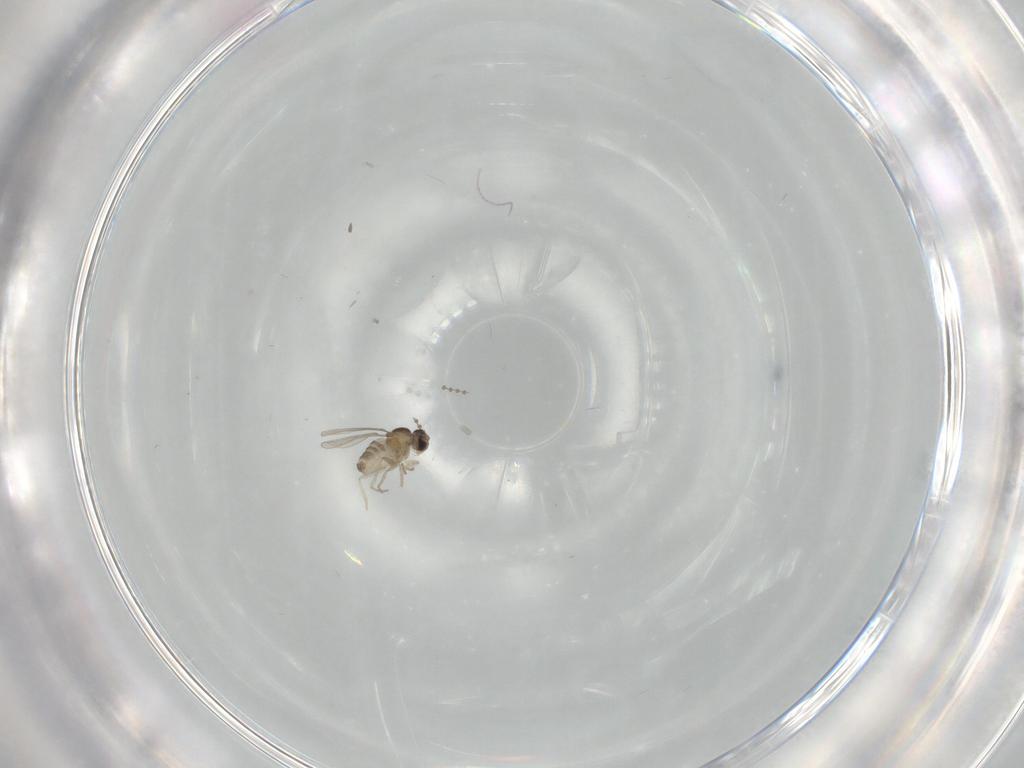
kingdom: Animalia
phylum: Arthropoda
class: Insecta
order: Diptera
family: Cecidomyiidae
